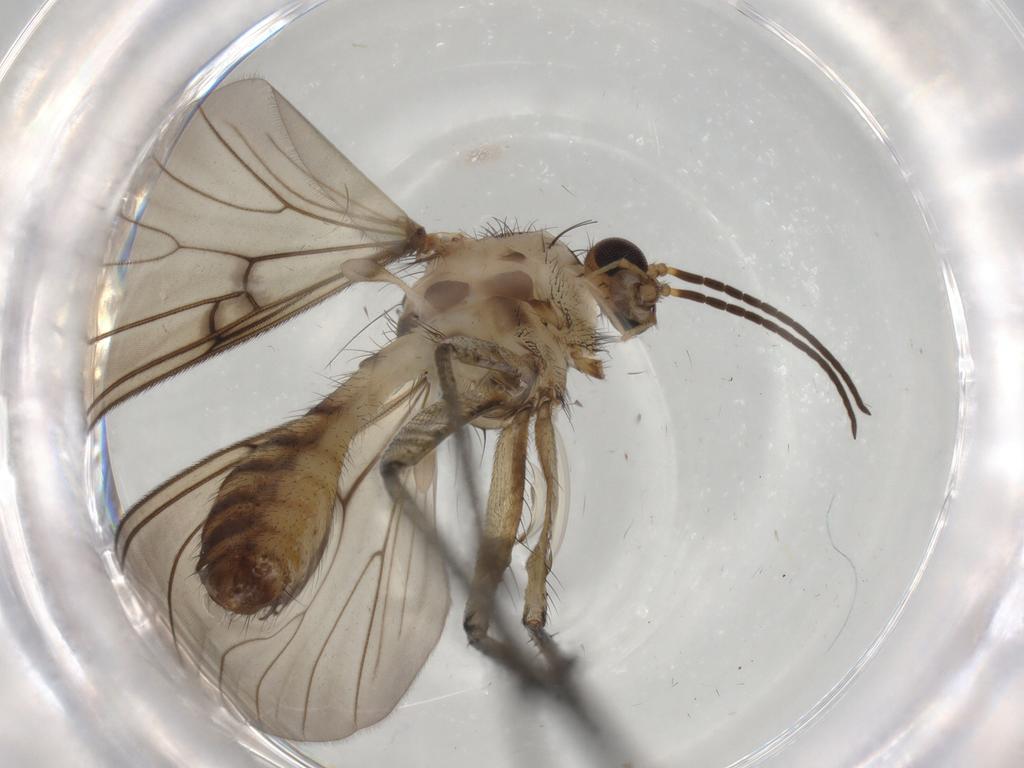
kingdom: Animalia
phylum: Arthropoda
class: Insecta
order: Diptera
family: Mycetophilidae
